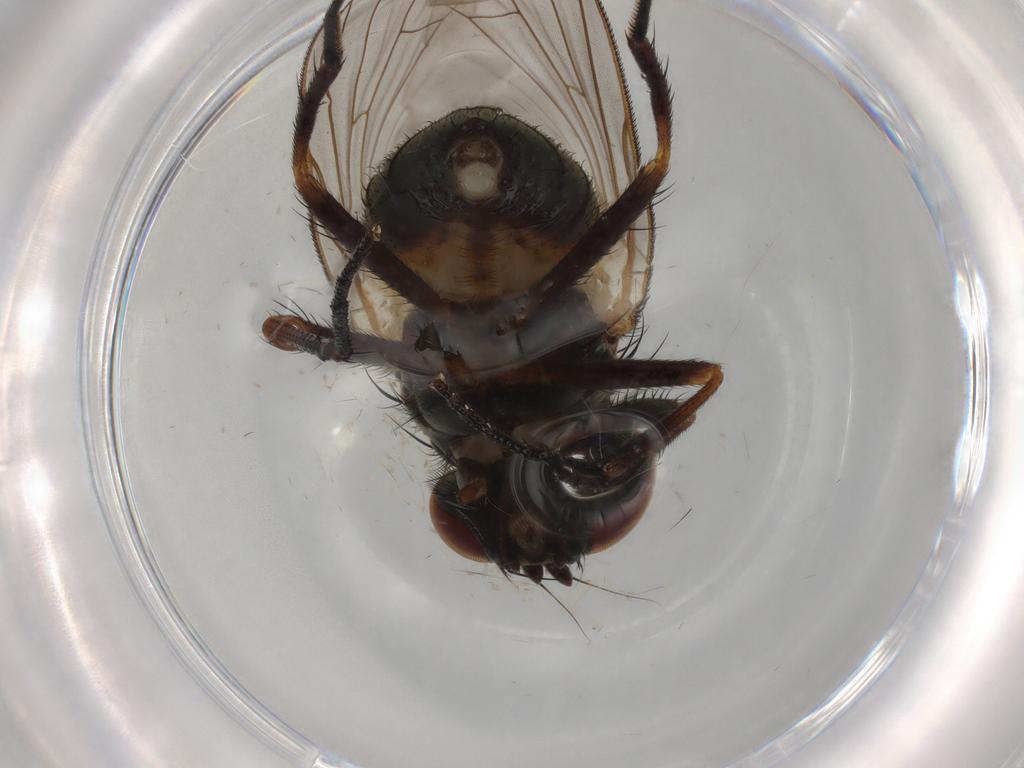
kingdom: Animalia
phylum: Arthropoda
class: Insecta
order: Diptera
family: Fannia
